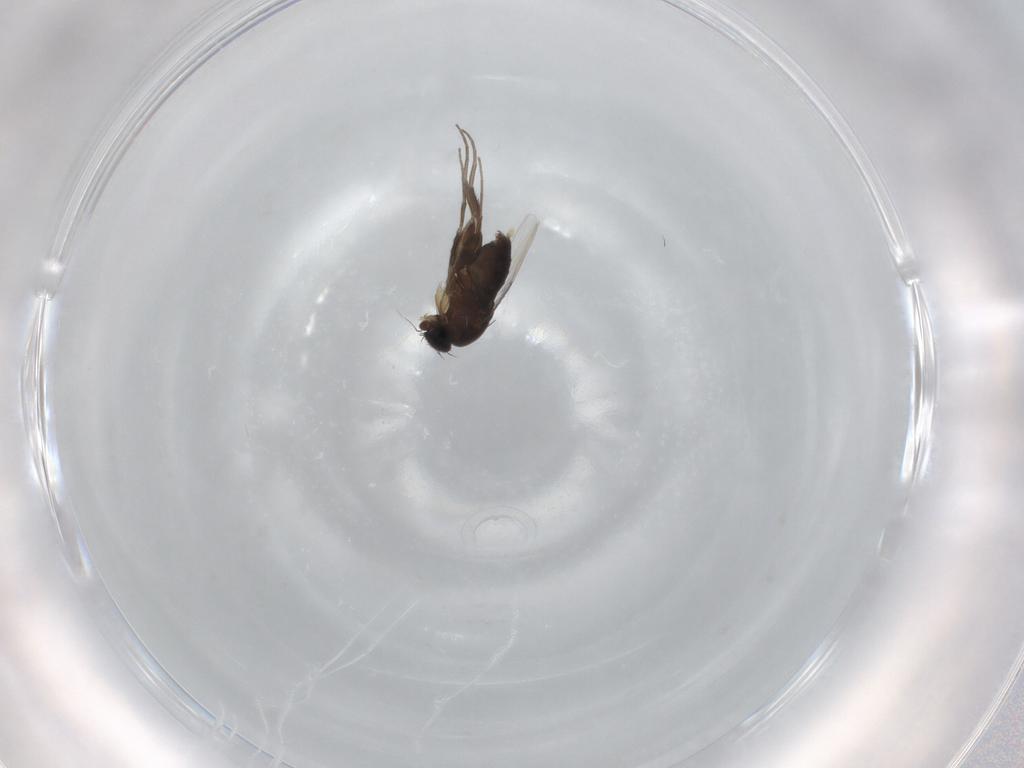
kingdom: Animalia
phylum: Arthropoda
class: Insecta
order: Diptera
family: Phoridae
